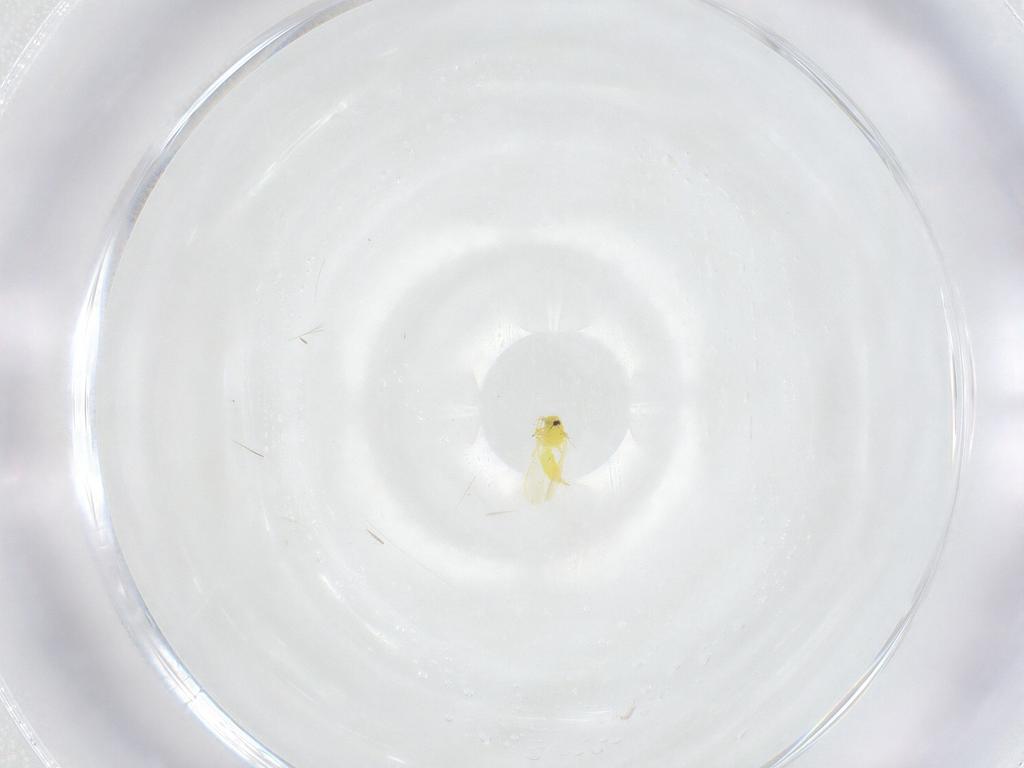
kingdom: Animalia
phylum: Arthropoda
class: Insecta
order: Hemiptera
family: Aleyrodidae
